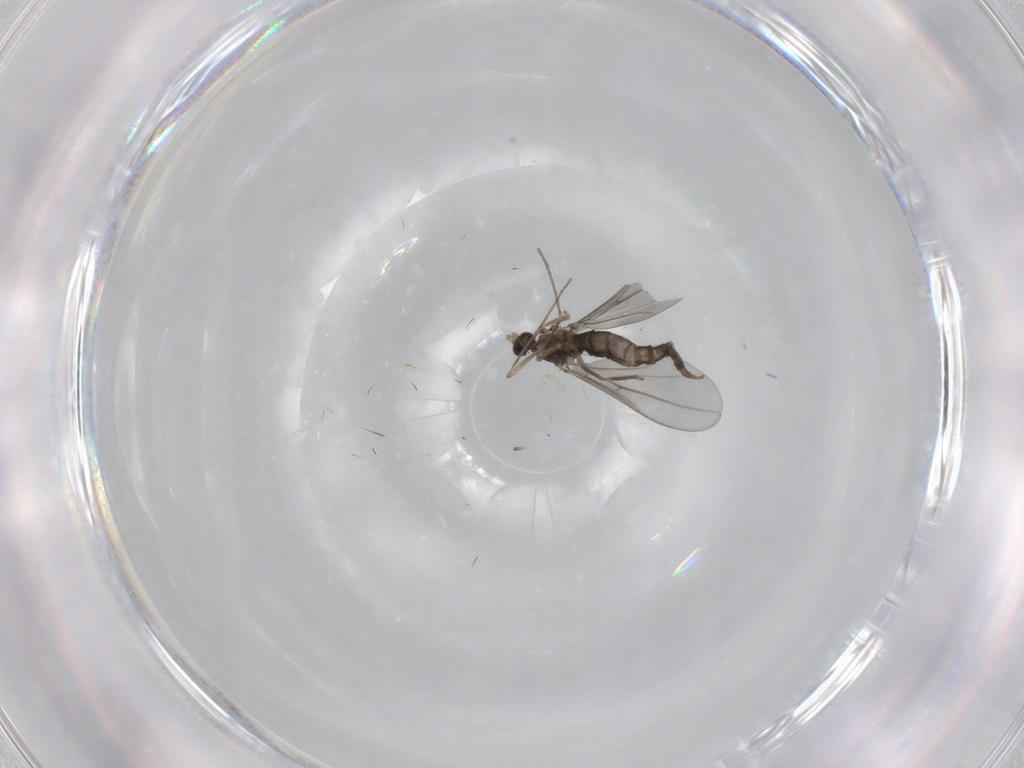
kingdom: Animalia
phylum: Arthropoda
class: Insecta
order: Diptera
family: Cecidomyiidae
